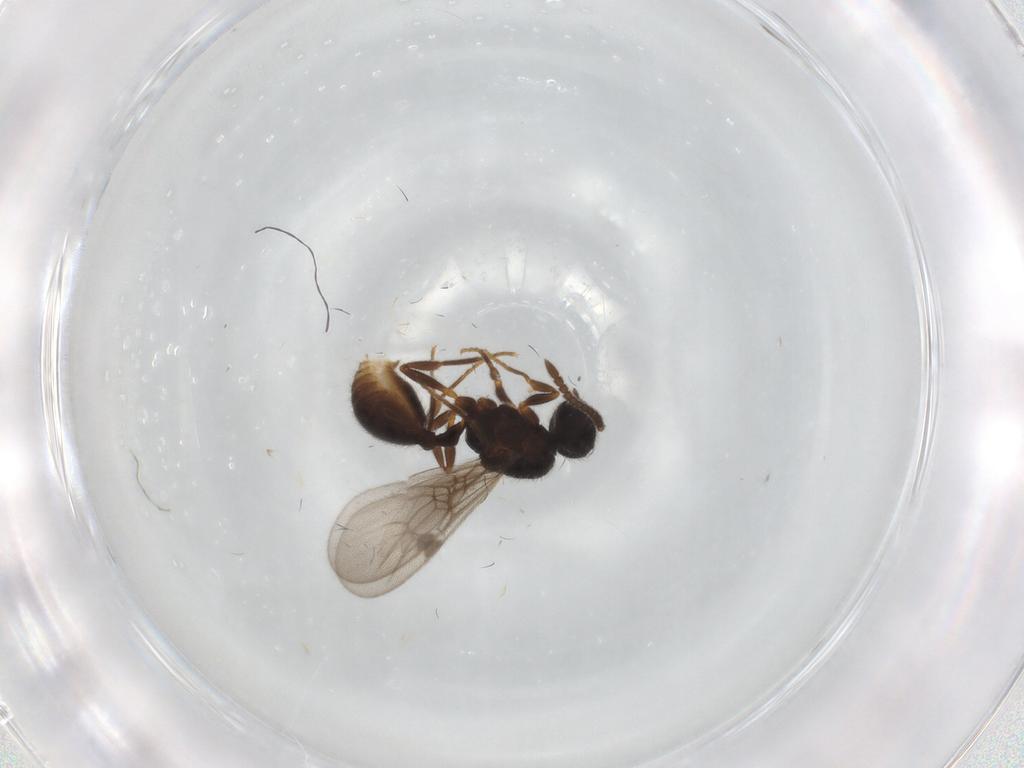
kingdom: Animalia
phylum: Arthropoda
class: Insecta
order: Hymenoptera
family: Formicidae
